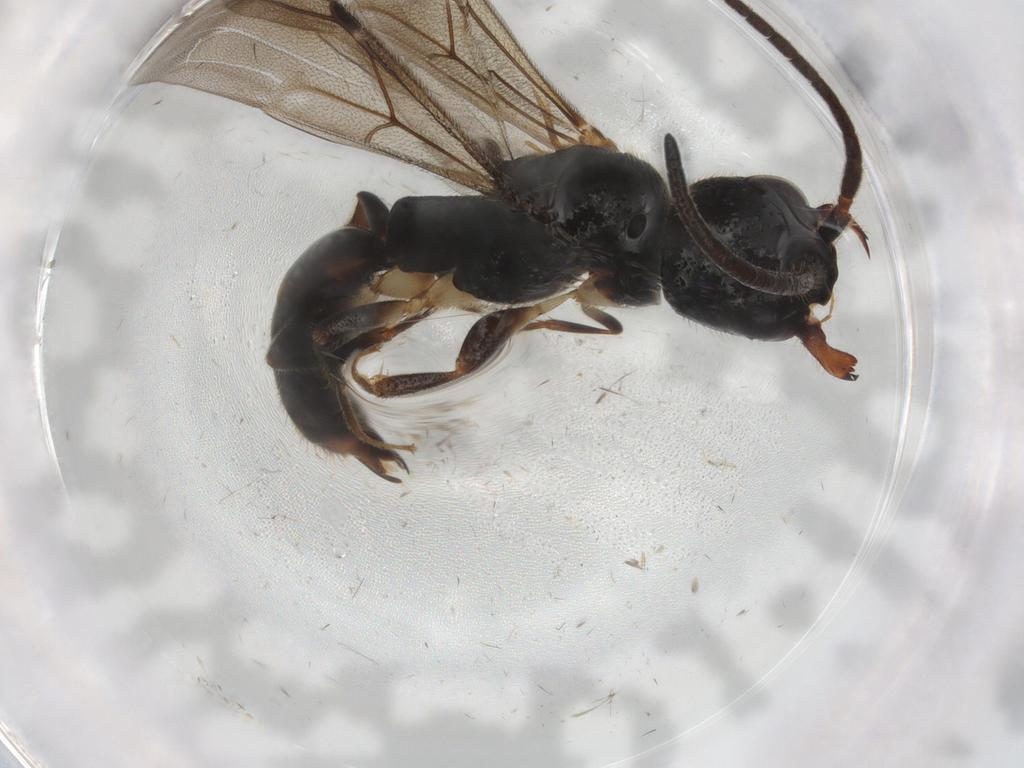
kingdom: Animalia
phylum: Arthropoda
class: Insecta
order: Hymenoptera
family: Bethylidae
